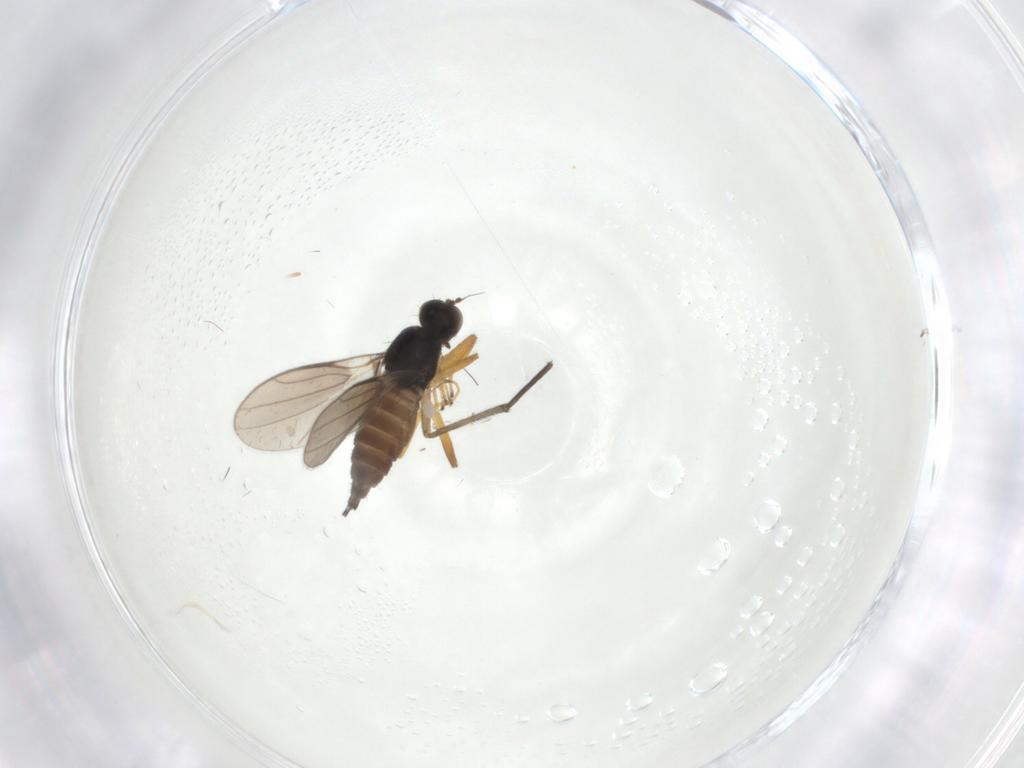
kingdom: Animalia
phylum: Arthropoda
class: Insecta
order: Diptera
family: Hybotidae
